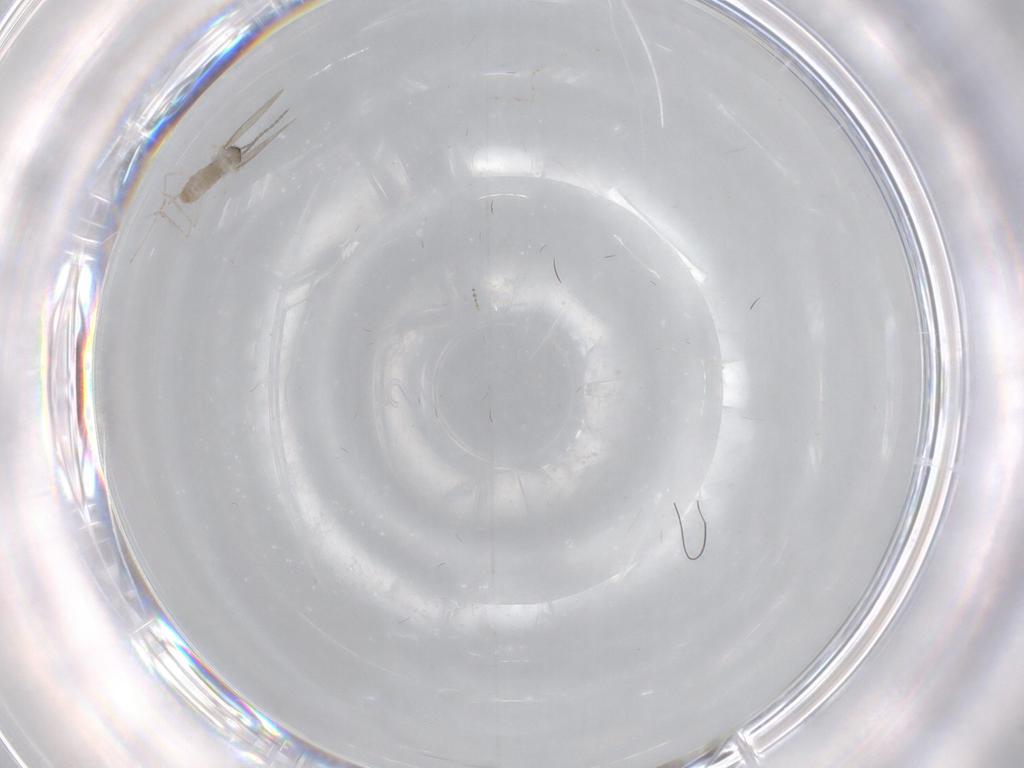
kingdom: Animalia
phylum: Arthropoda
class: Insecta
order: Diptera
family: Cecidomyiidae
